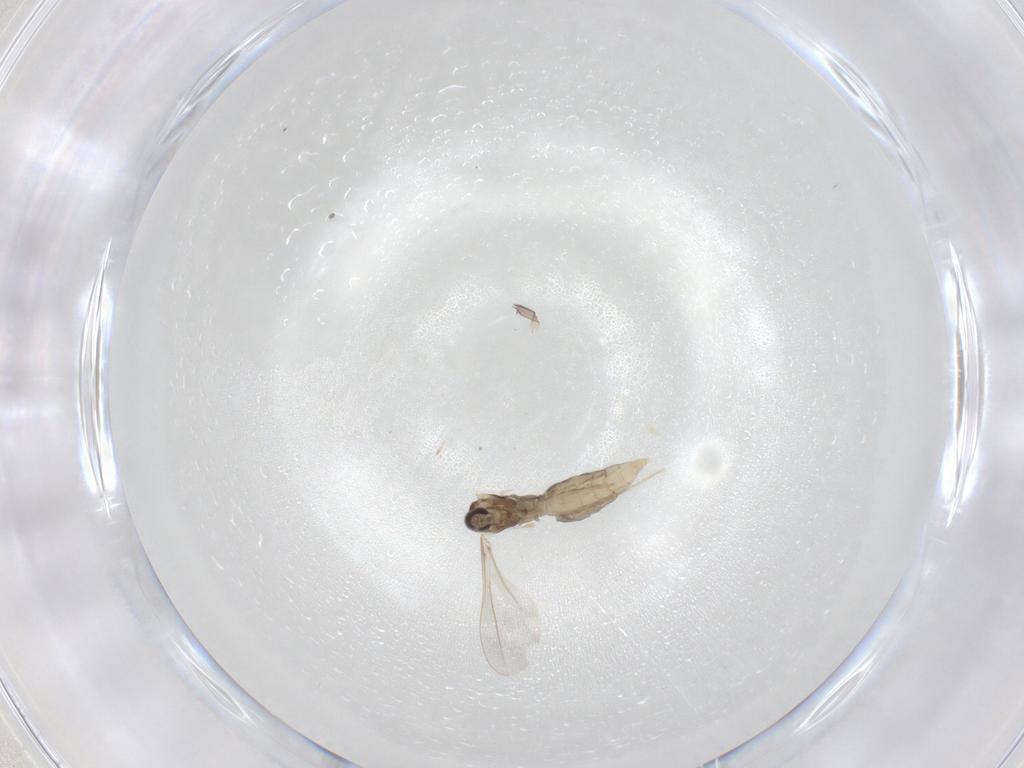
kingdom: Animalia
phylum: Arthropoda
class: Insecta
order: Diptera
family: Cecidomyiidae
